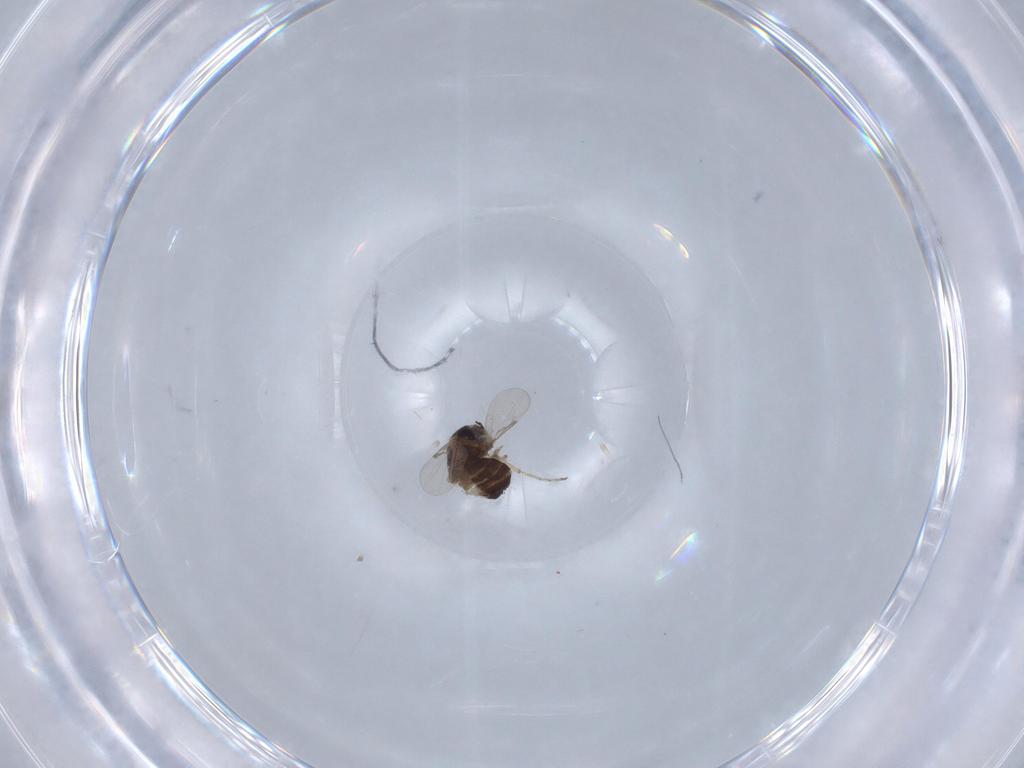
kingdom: Animalia
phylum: Arthropoda
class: Insecta
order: Diptera
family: Ceratopogonidae
